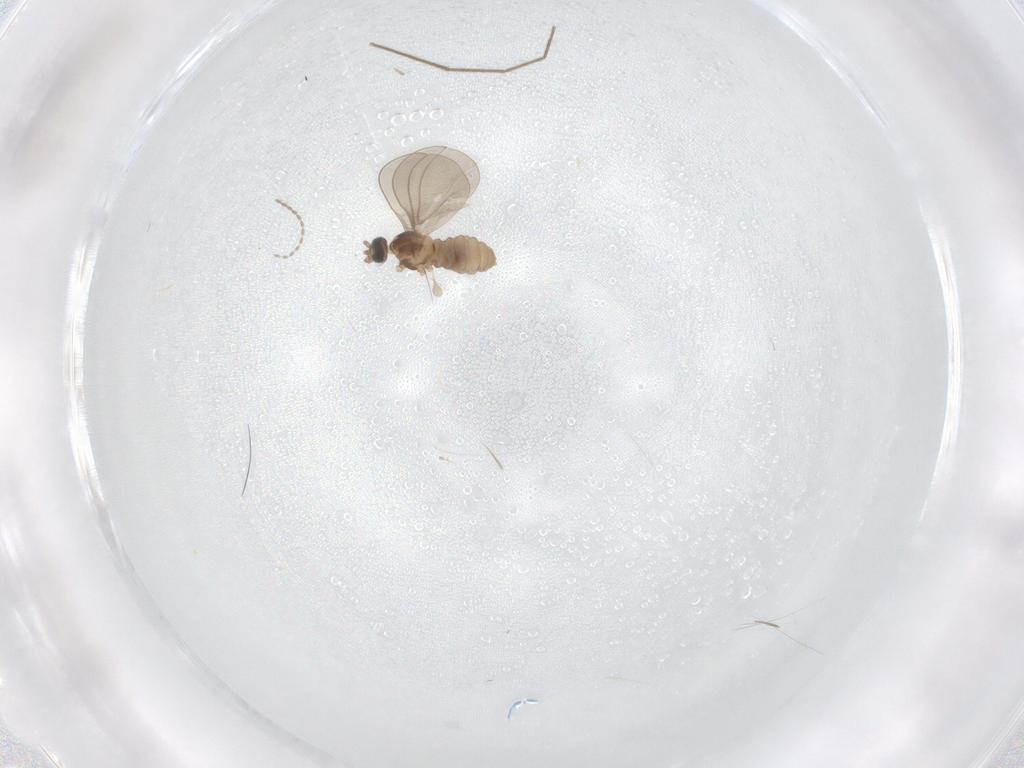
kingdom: Animalia
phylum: Arthropoda
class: Insecta
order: Diptera
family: Cecidomyiidae
